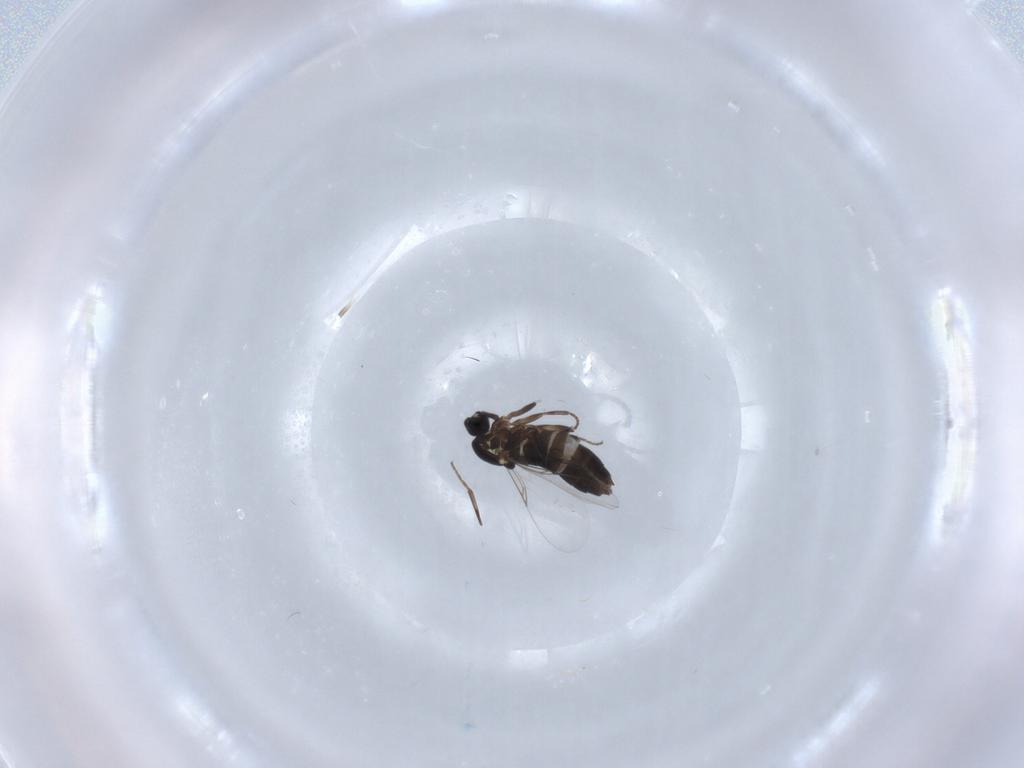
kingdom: Animalia
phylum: Arthropoda
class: Insecta
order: Diptera
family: Scatopsidae
